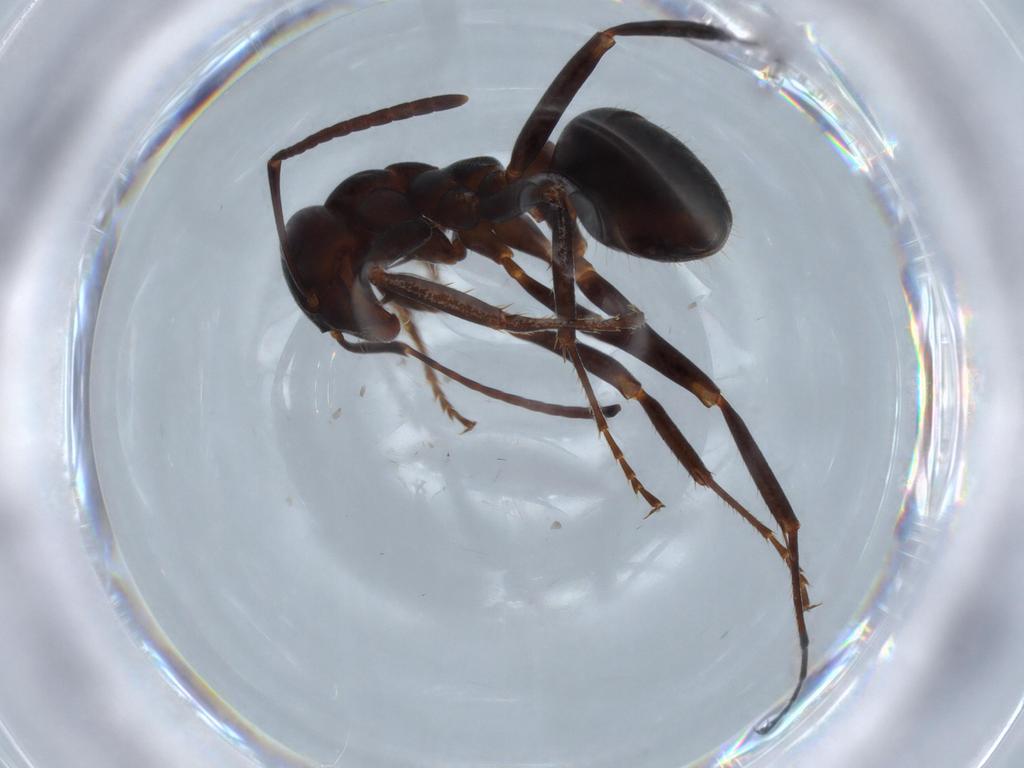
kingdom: Animalia
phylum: Arthropoda
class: Insecta
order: Hymenoptera
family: Formicidae
